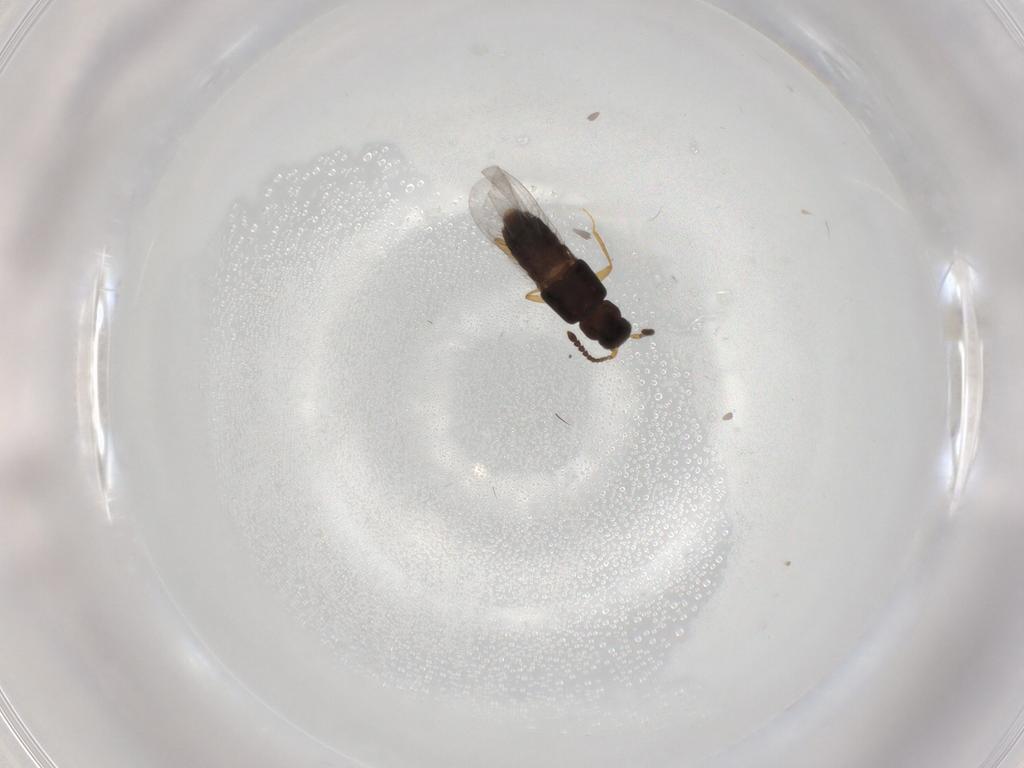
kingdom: Animalia
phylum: Arthropoda
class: Insecta
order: Coleoptera
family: Staphylinidae
